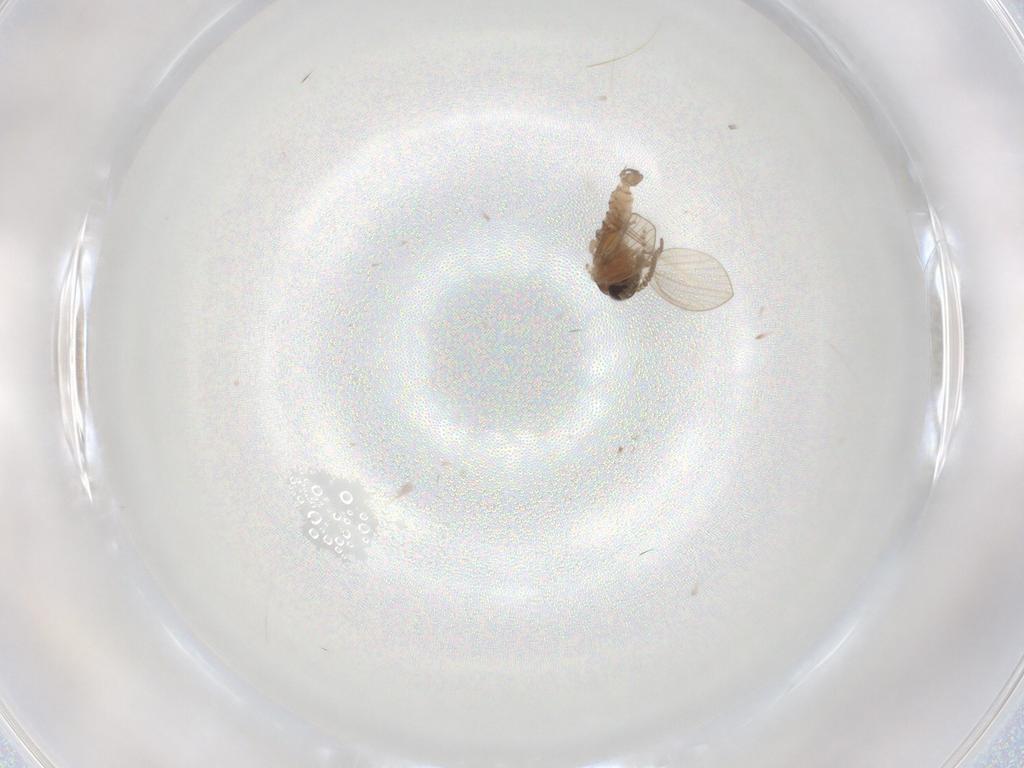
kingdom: Animalia
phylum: Arthropoda
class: Insecta
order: Diptera
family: Psychodidae
